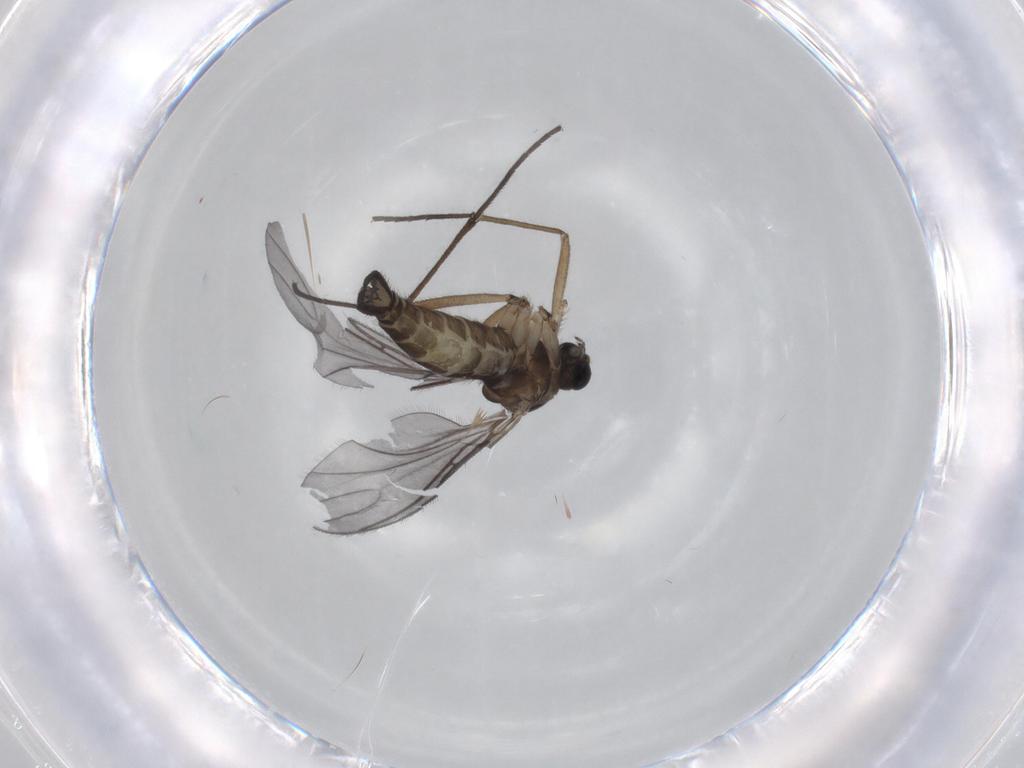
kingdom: Animalia
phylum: Arthropoda
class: Insecta
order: Diptera
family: Sciaridae
